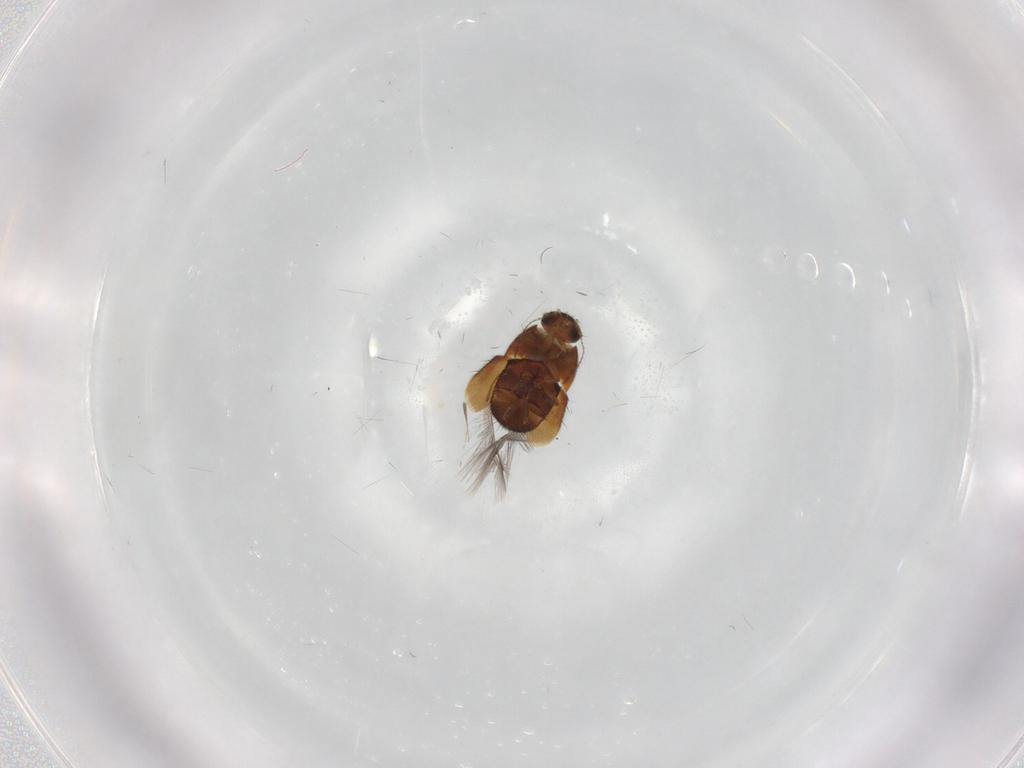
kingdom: Animalia
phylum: Arthropoda
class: Insecta
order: Coleoptera
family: Ptiliidae
